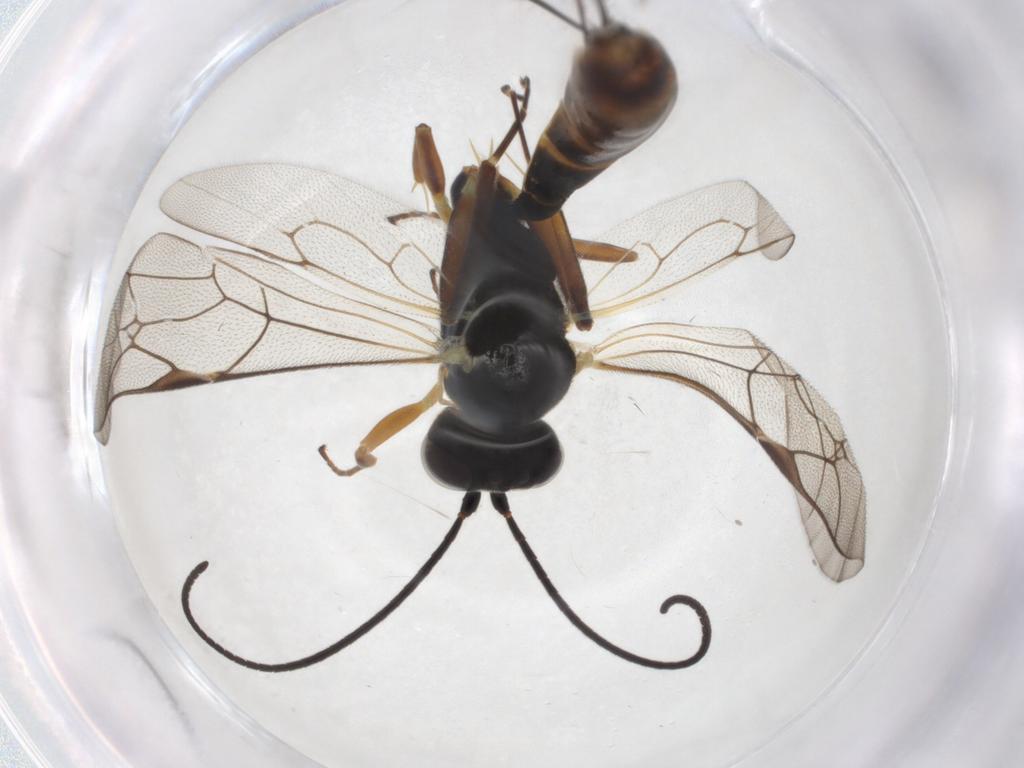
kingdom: Animalia
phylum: Arthropoda
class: Insecta
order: Hymenoptera
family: Ichneumonidae
